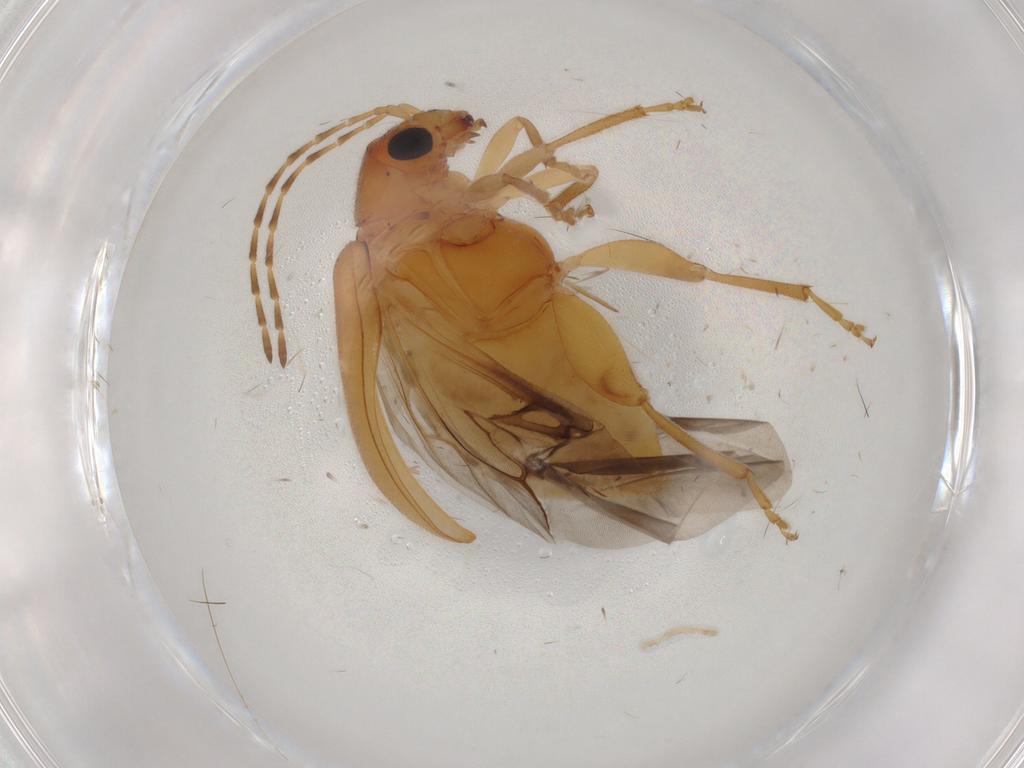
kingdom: Animalia
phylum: Arthropoda
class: Insecta
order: Coleoptera
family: Chrysomelidae
